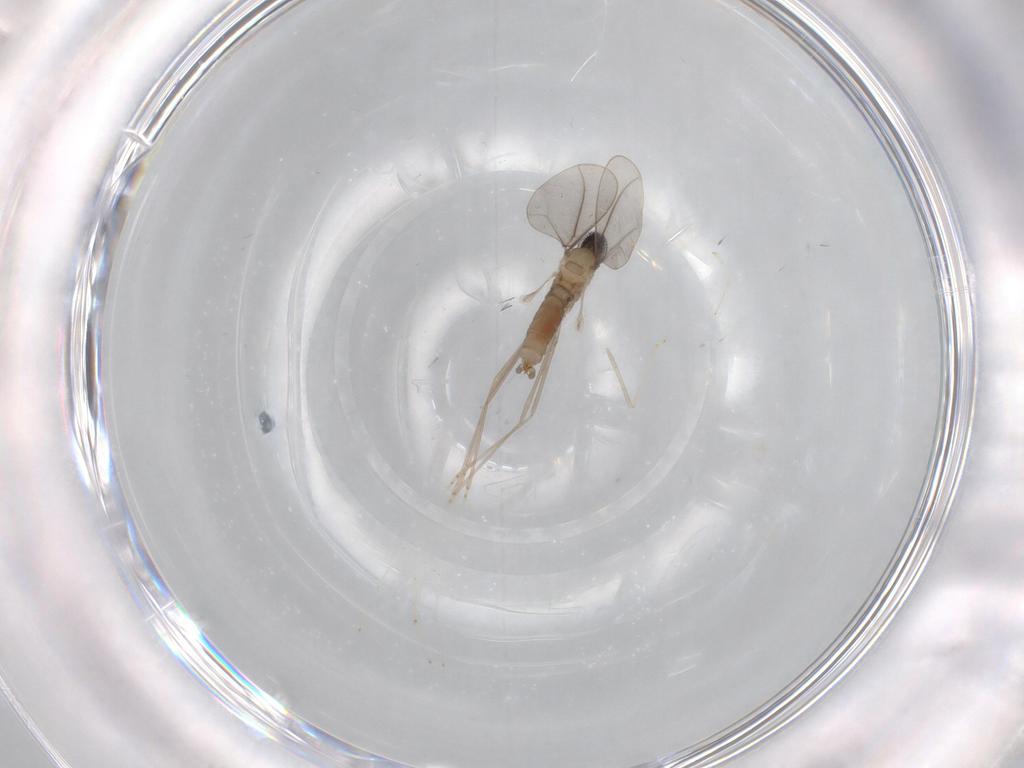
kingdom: Animalia
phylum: Arthropoda
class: Insecta
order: Diptera
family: Cecidomyiidae
